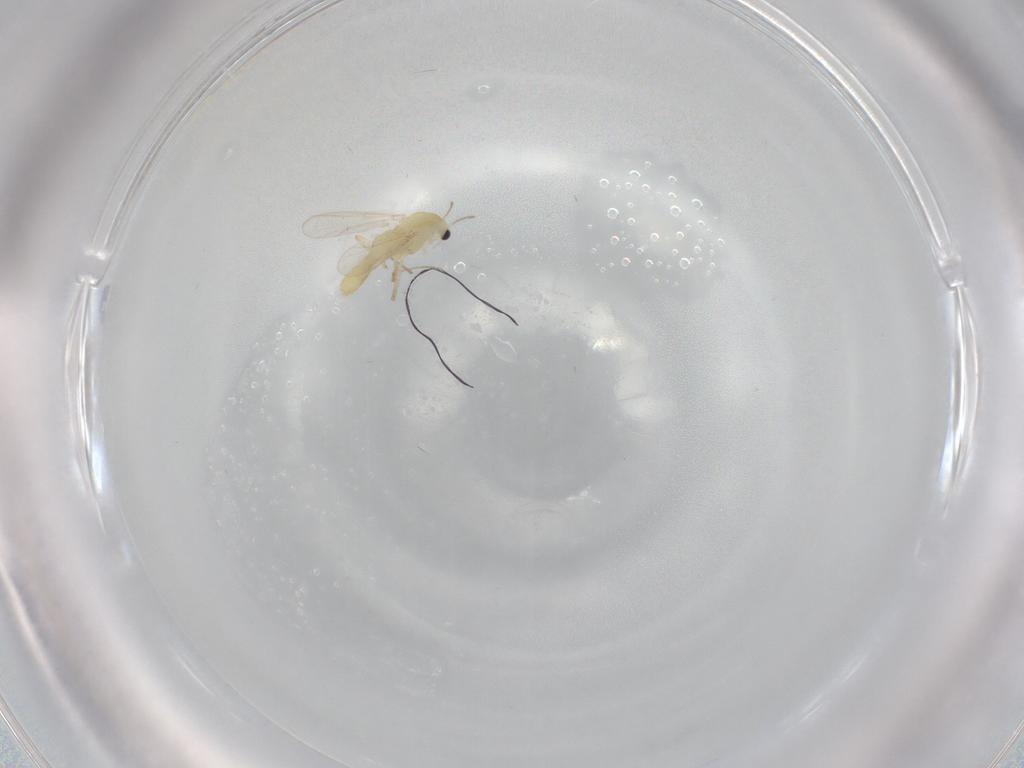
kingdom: Animalia
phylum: Arthropoda
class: Insecta
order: Diptera
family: Chironomidae
